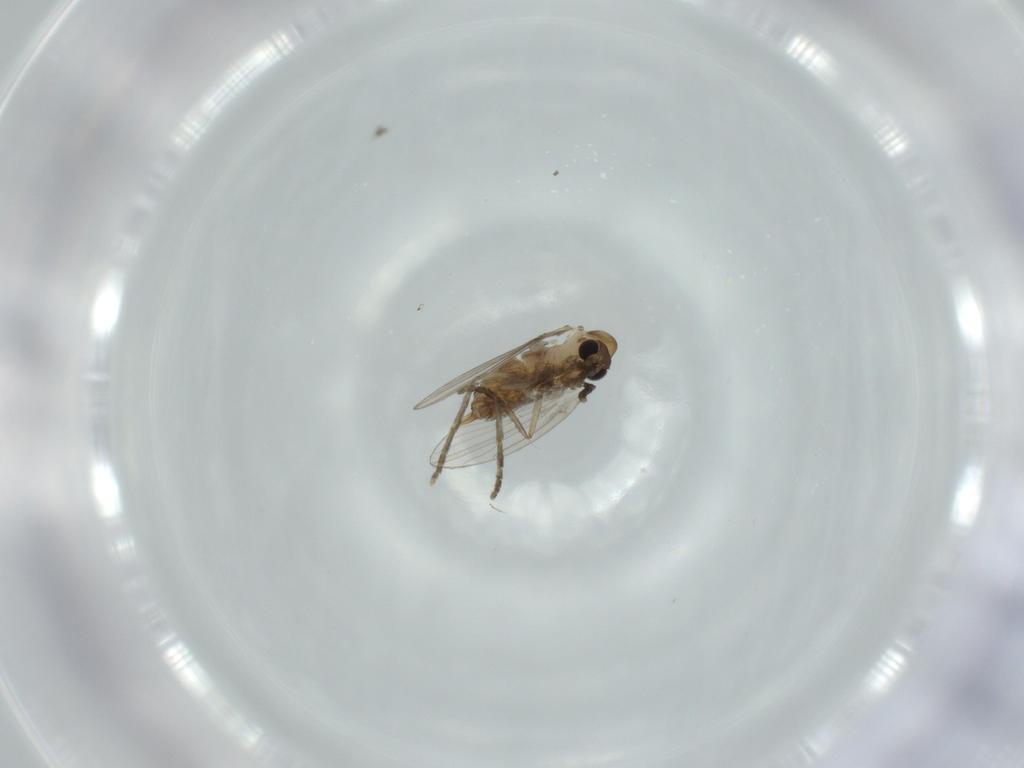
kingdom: Animalia
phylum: Arthropoda
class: Insecta
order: Diptera
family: Psychodidae
